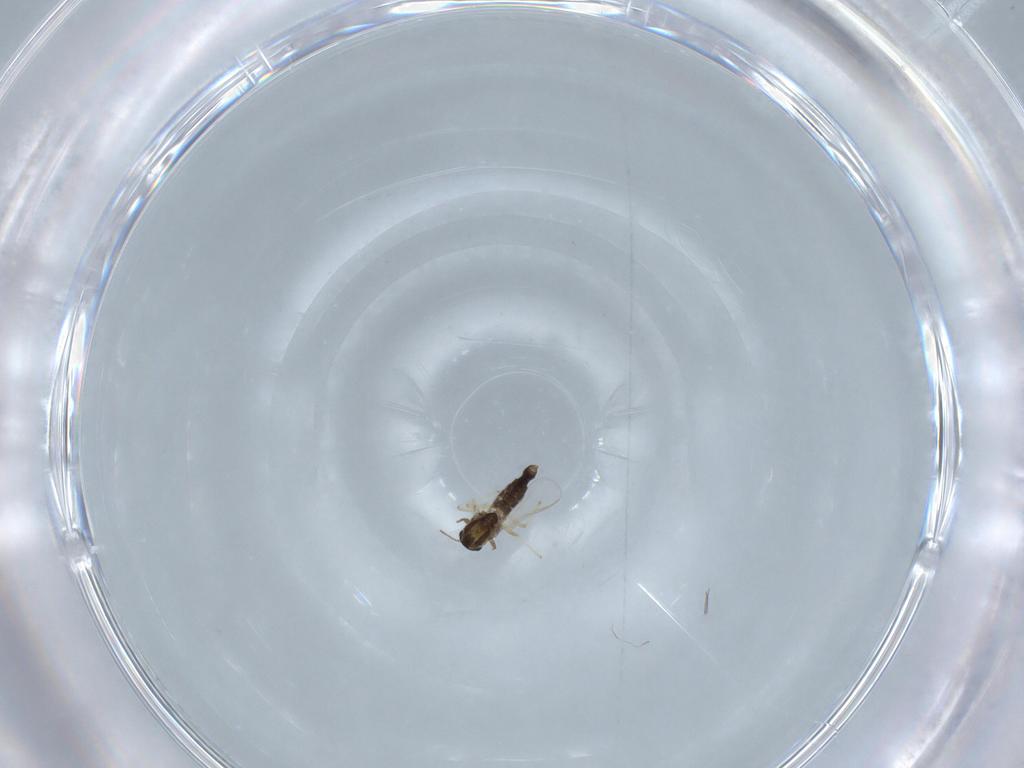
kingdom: Animalia
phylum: Arthropoda
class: Insecta
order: Diptera
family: Chironomidae
